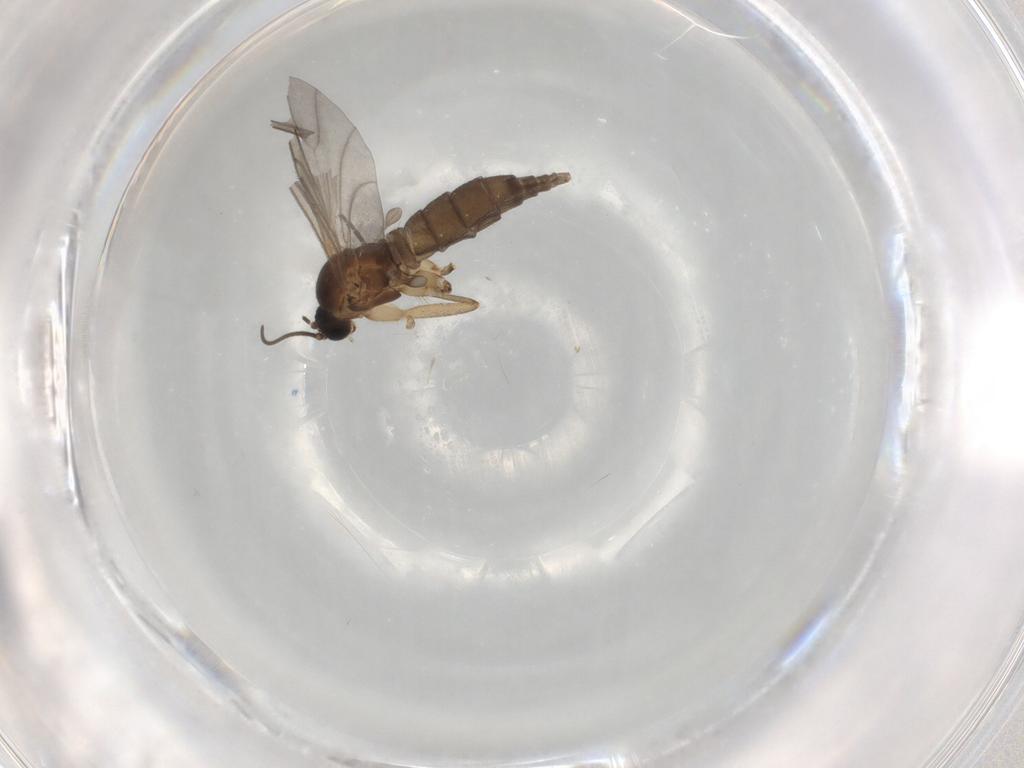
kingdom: Animalia
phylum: Arthropoda
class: Insecta
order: Diptera
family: Sciaridae
